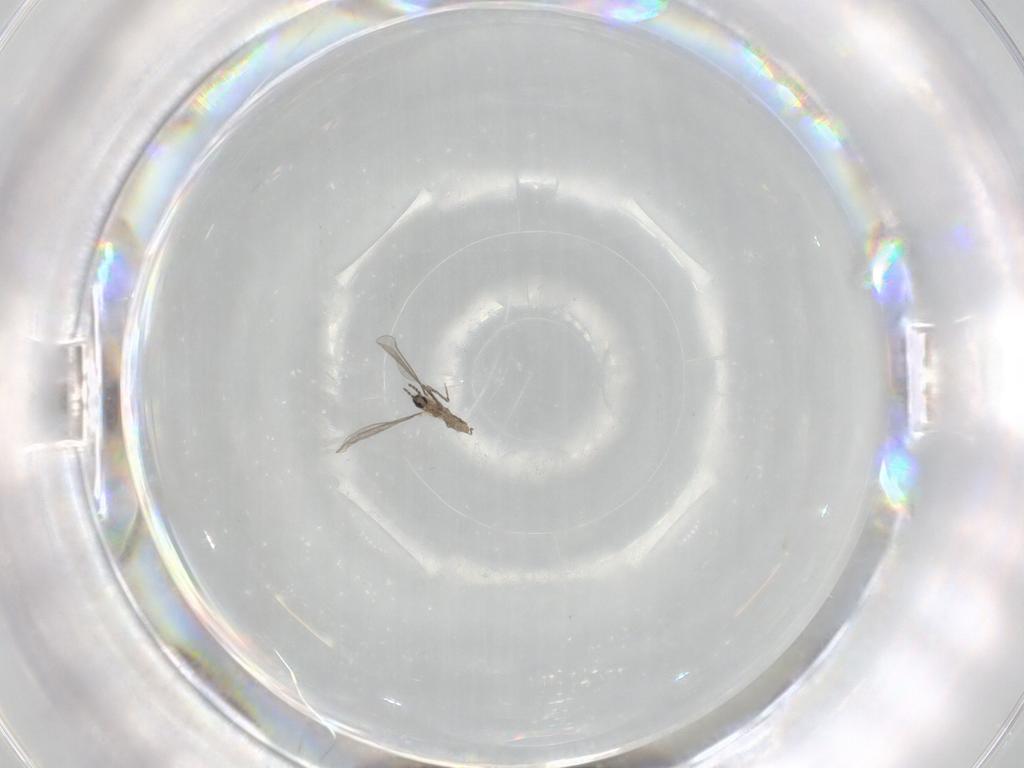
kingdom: Animalia
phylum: Arthropoda
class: Insecta
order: Diptera
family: Cecidomyiidae
